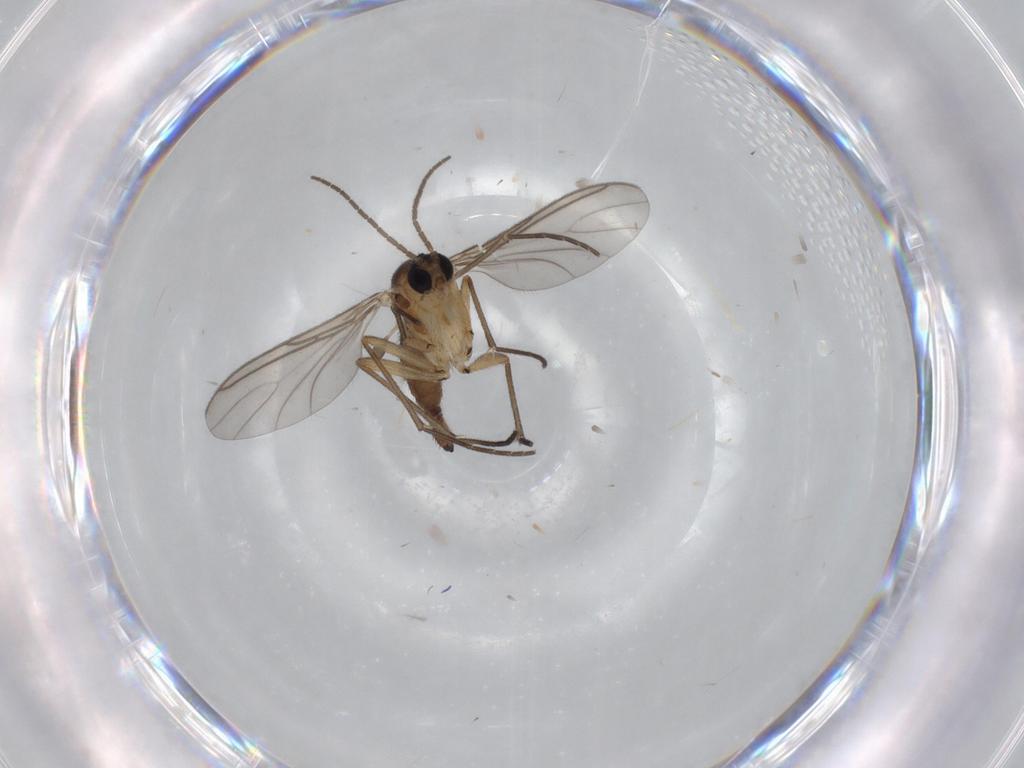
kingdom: Animalia
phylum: Arthropoda
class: Insecta
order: Diptera
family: Sciaridae
